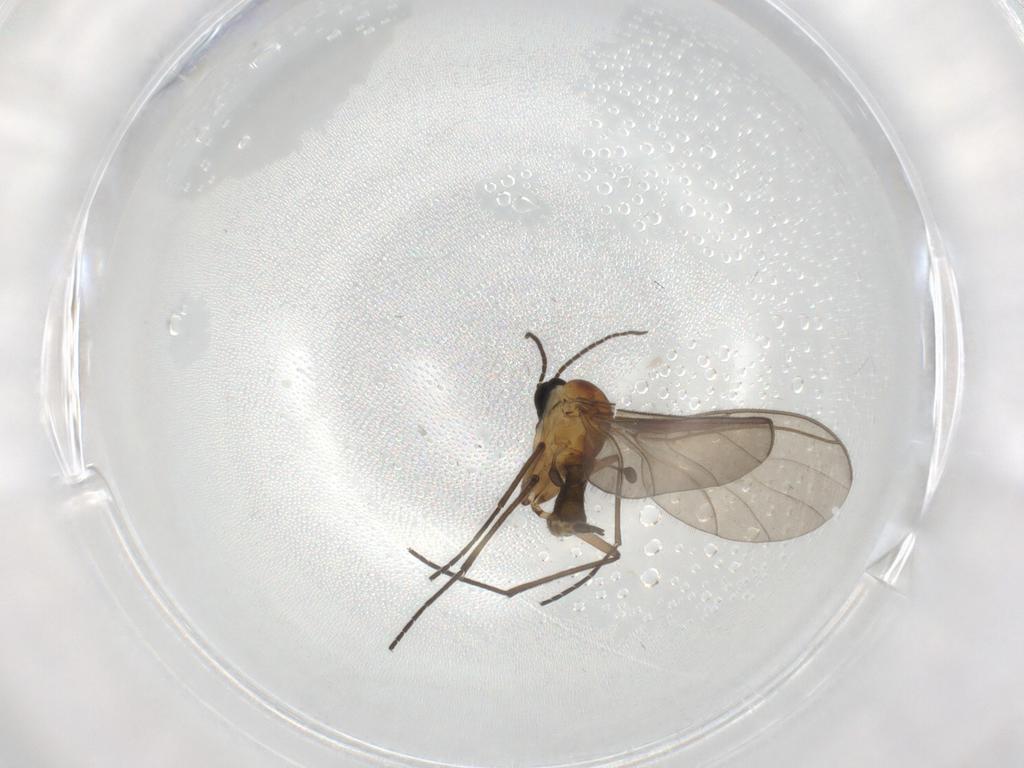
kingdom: Animalia
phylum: Arthropoda
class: Insecta
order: Diptera
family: Sciaridae
